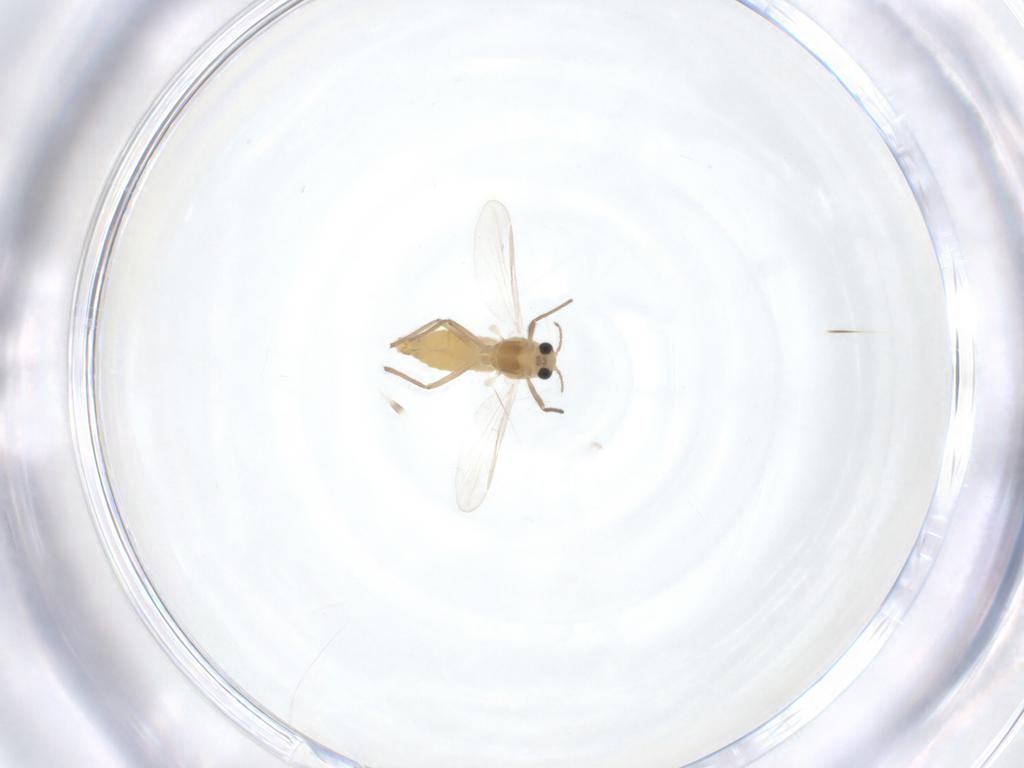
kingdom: Animalia
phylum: Arthropoda
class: Insecta
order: Diptera
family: Chironomidae
